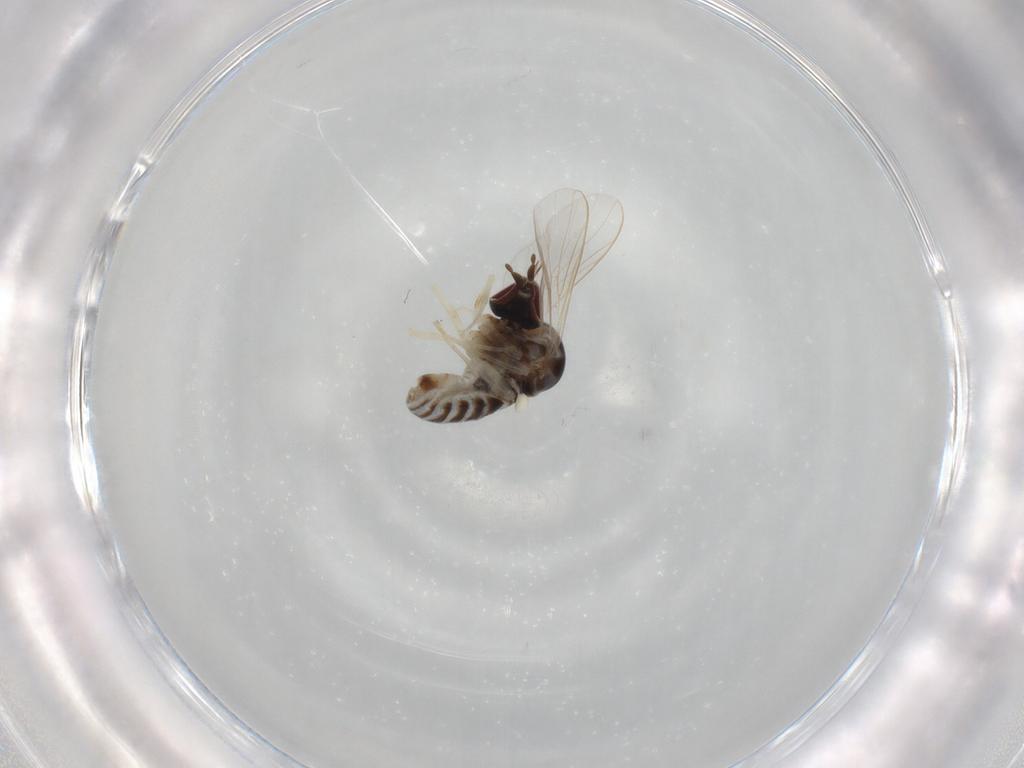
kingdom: Animalia
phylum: Arthropoda
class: Insecta
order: Diptera
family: Bombyliidae
